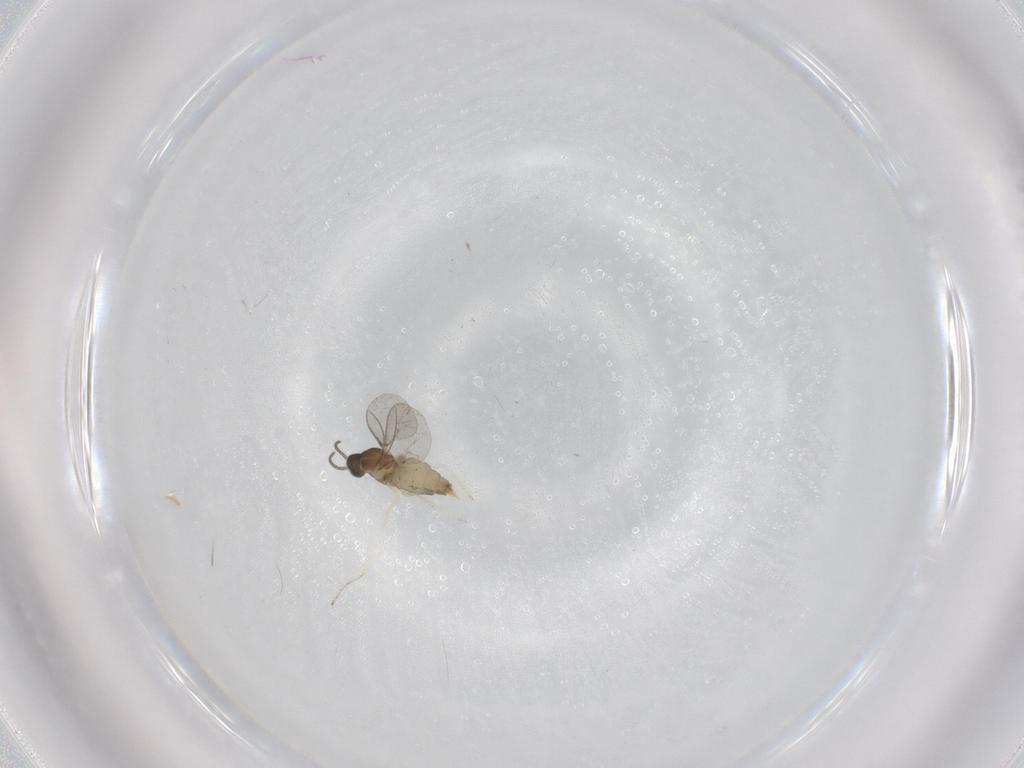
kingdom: Animalia
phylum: Arthropoda
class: Insecta
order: Diptera
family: Cecidomyiidae
